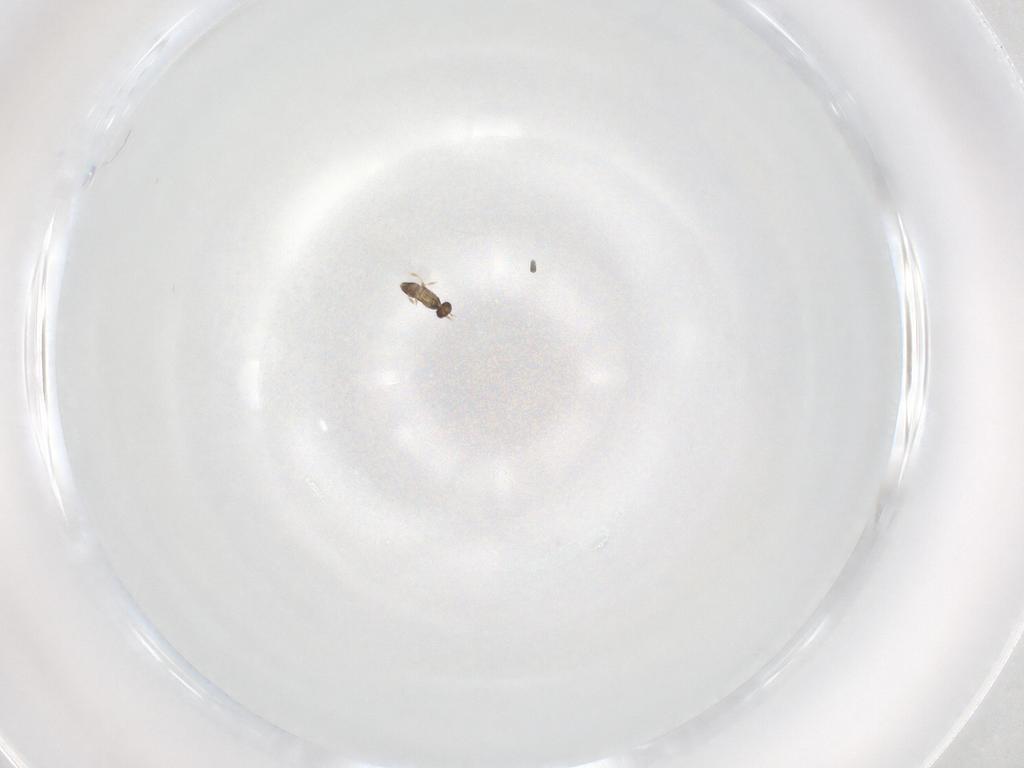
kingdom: Animalia
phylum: Arthropoda
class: Insecta
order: Hymenoptera
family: Mymaridae
